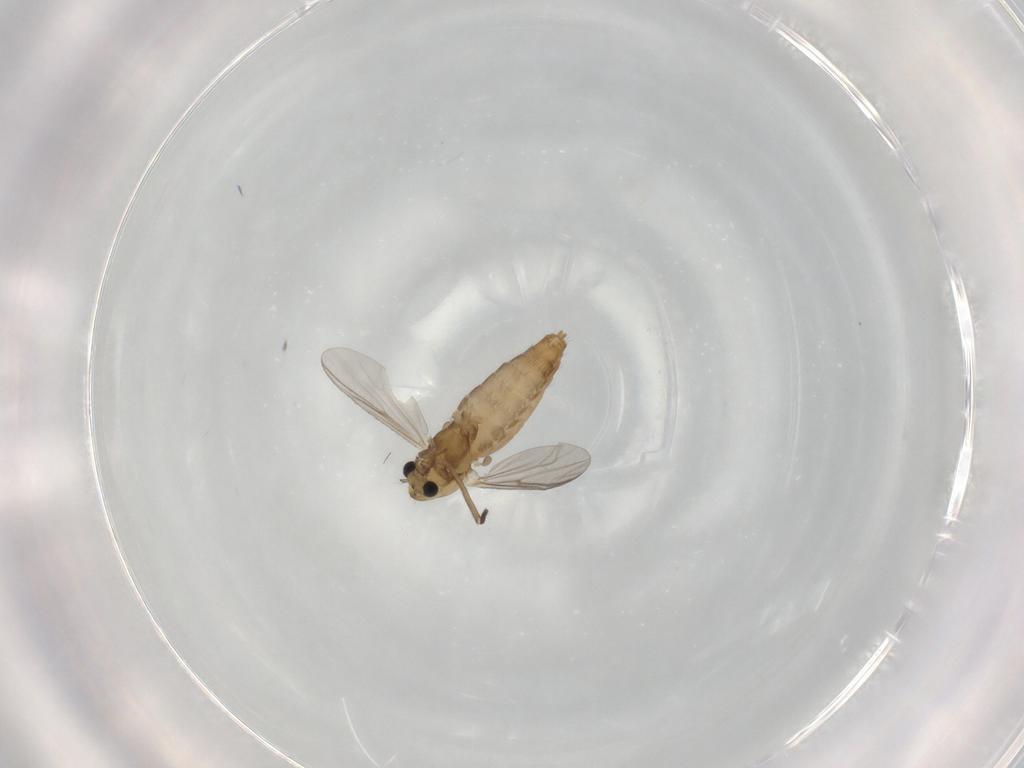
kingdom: Animalia
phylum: Arthropoda
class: Insecta
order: Diptera
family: Chironomidae
